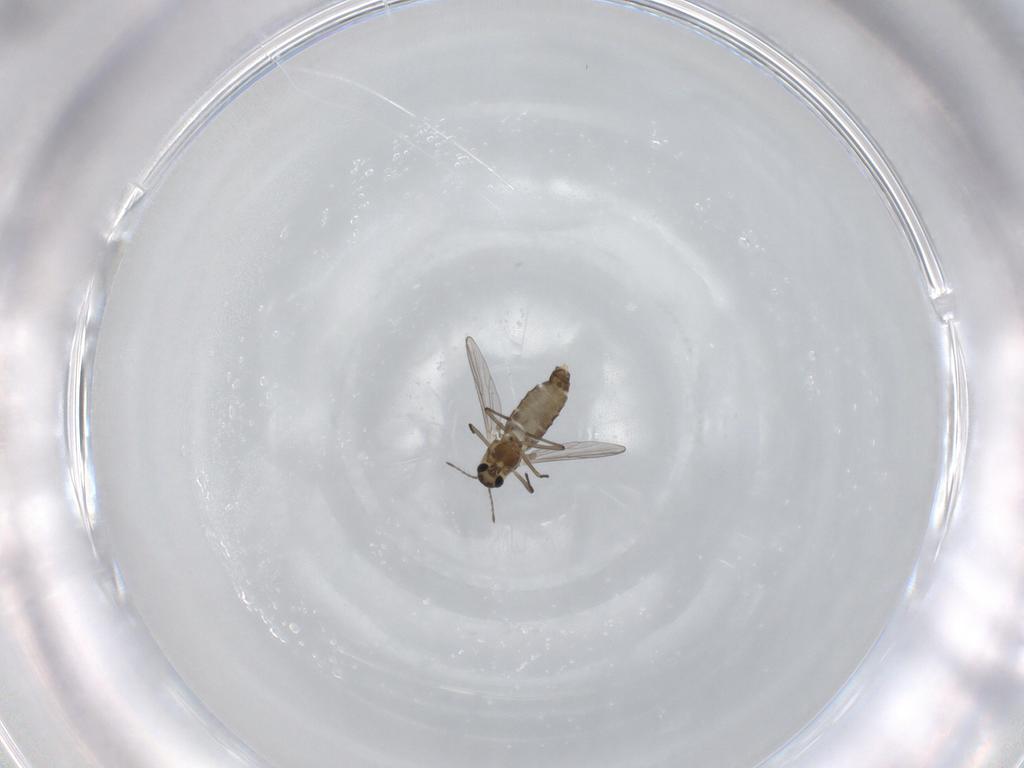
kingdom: Animalia
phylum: Arthropoda
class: Insecta
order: Diptera
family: Chironomidae
